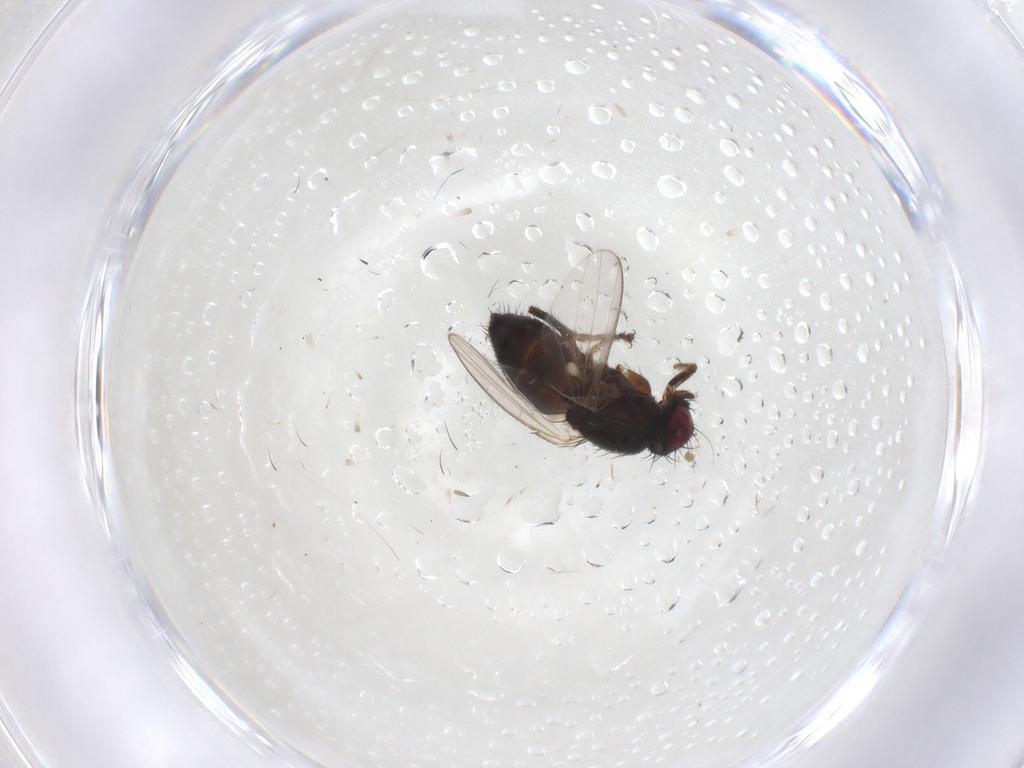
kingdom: Animalia
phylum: Arthropoda
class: Insecta
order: Diptera
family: Milichiidae
